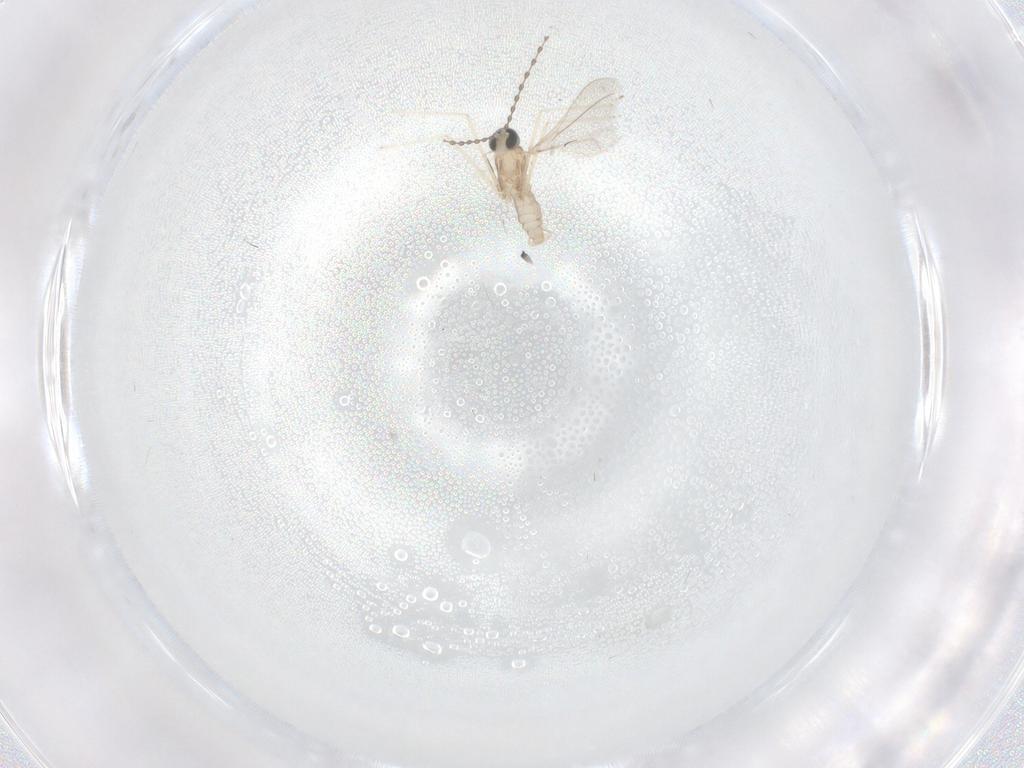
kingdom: Animalia
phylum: Arthropoda
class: Insecta
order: Diptera
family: Cecidomyiidae
